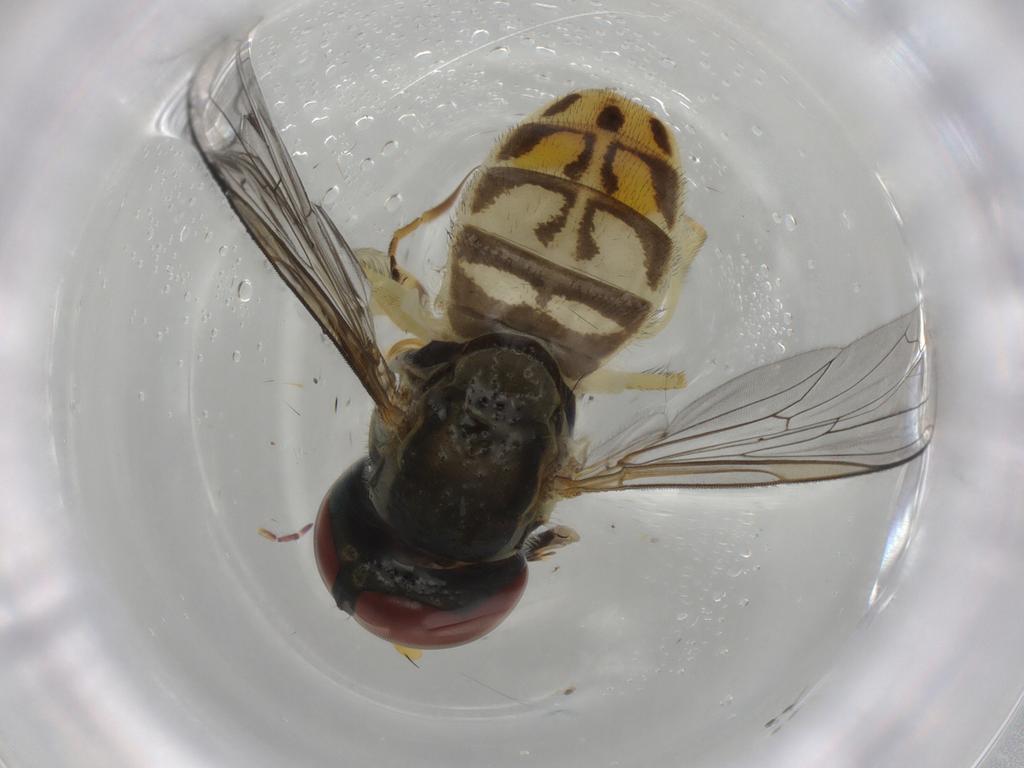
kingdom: Animalia
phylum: Arthropoda
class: Insecta
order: Diptera
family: Syrphidae
